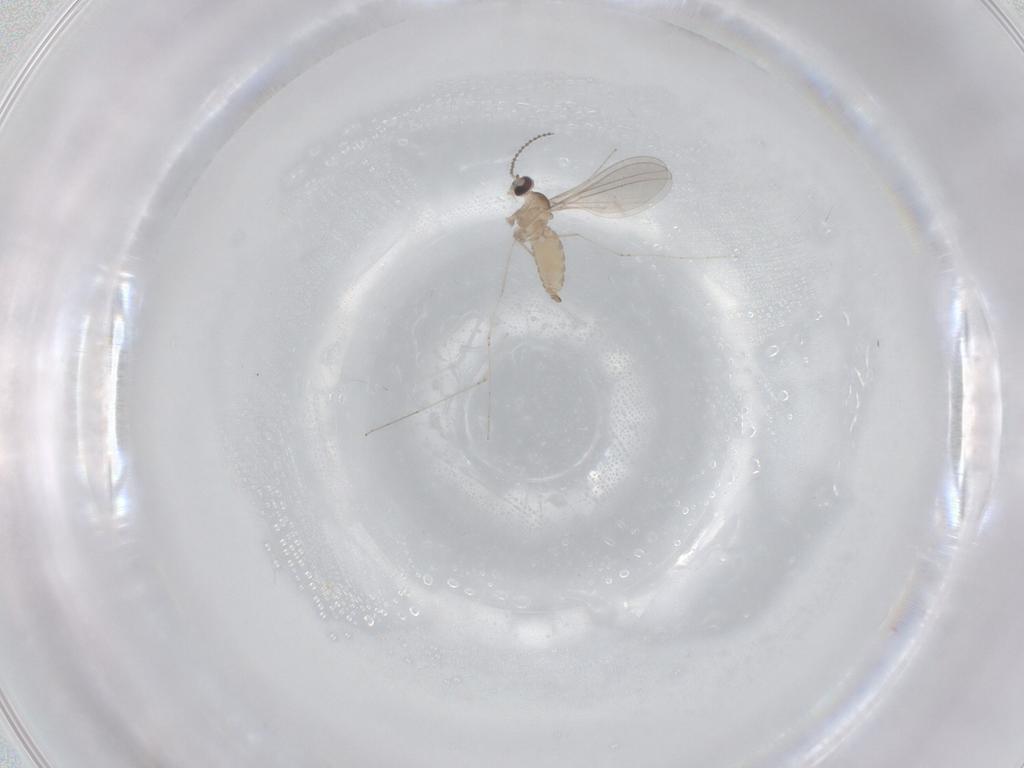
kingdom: Animalia
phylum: Arthropoda
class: Insecta
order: Diptera
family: Cecidomyiidae
